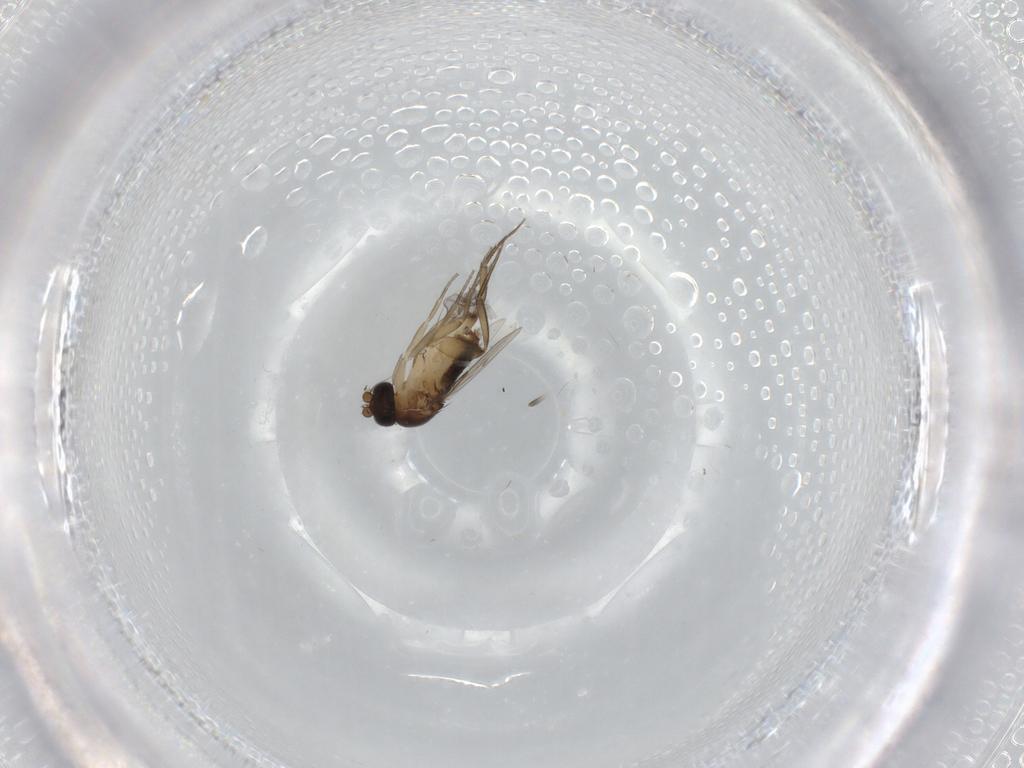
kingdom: Animalia
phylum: Arthropoda
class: Insecta
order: Diptera
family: Phoridae
